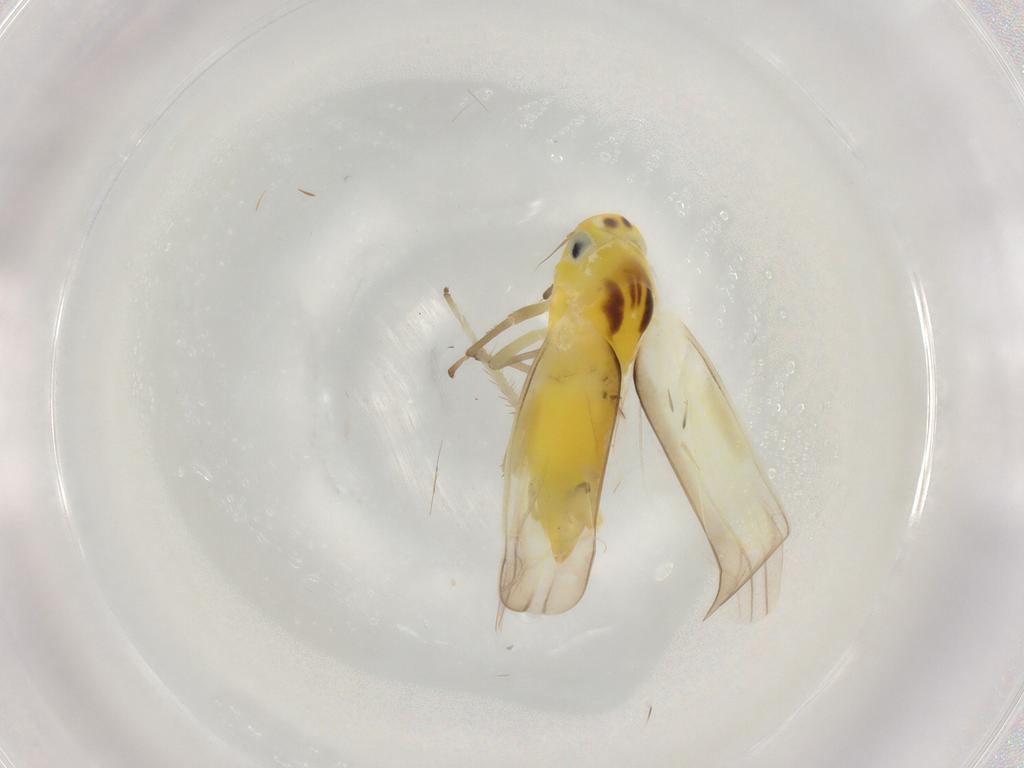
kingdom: Animalia
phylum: Arthropoda
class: Insecta
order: Hemiptera
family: Cicadellidae
